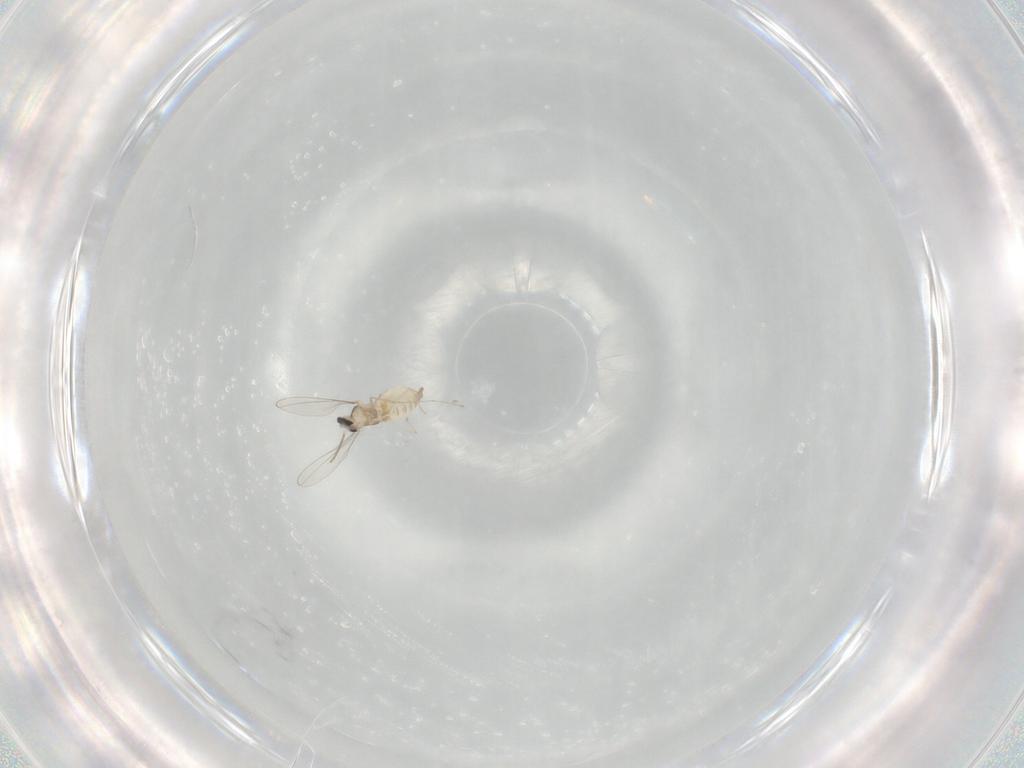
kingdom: Animalia
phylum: Arthropoda
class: Insecta
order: Diptera
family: Cecidomyiidae
